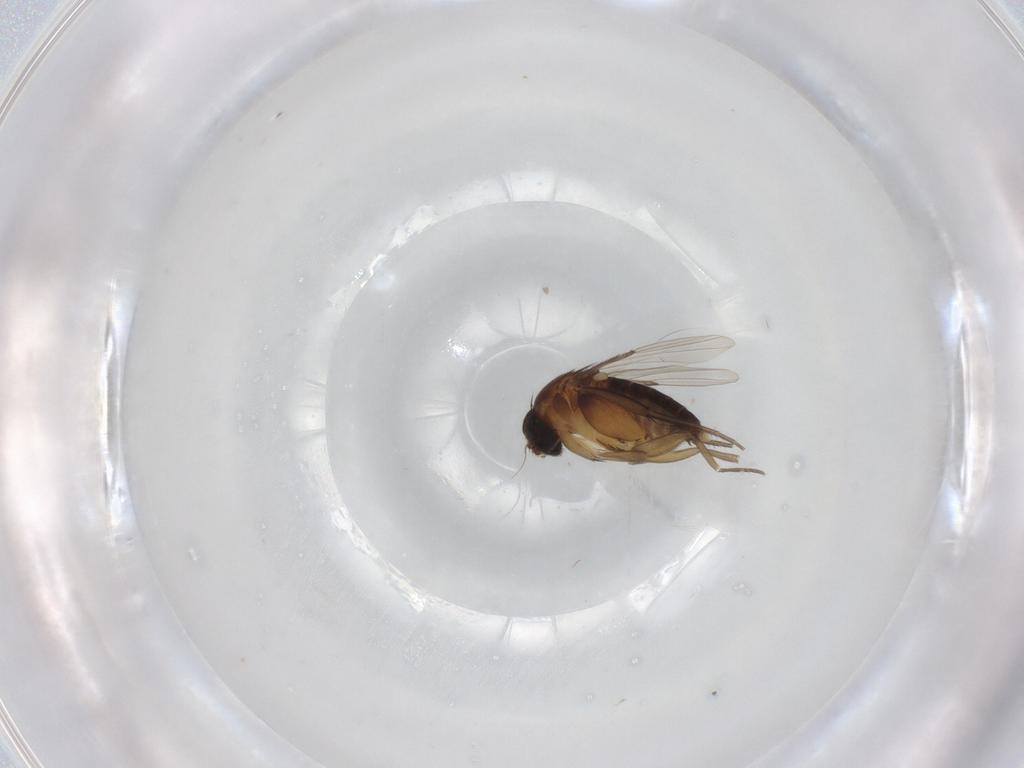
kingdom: Animalia
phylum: Arthropoda
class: Insecta
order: Diptera
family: Phoridae
